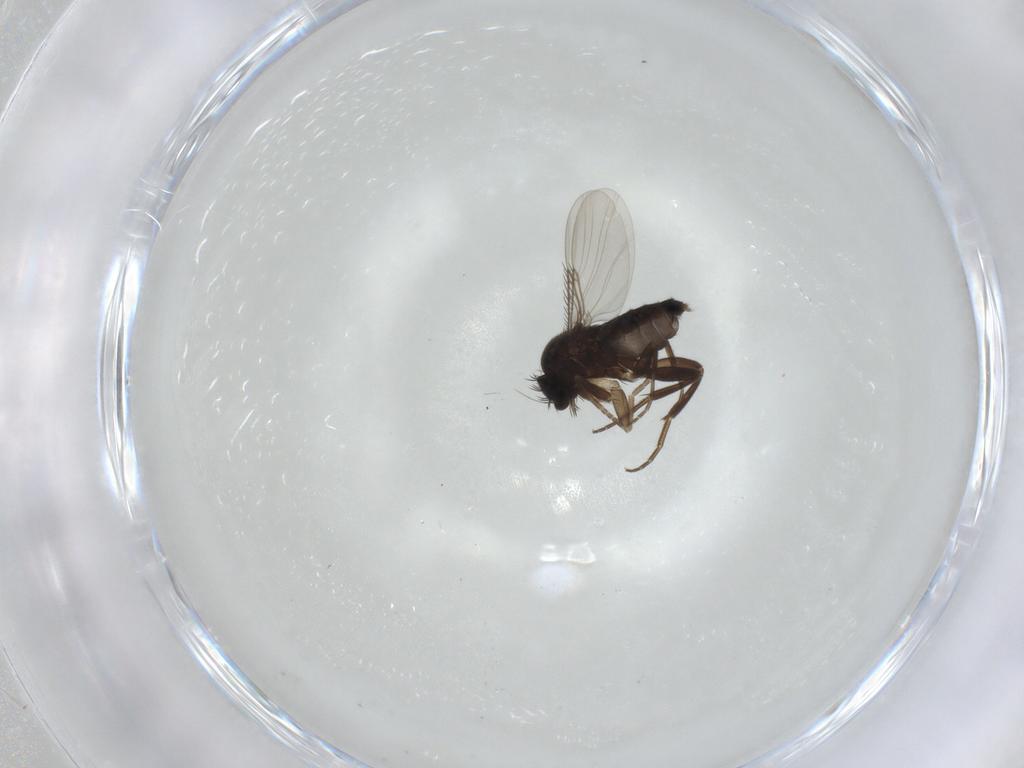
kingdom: Animalia
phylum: Arthropoda
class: Insecta
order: Diptera
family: Phoridae
